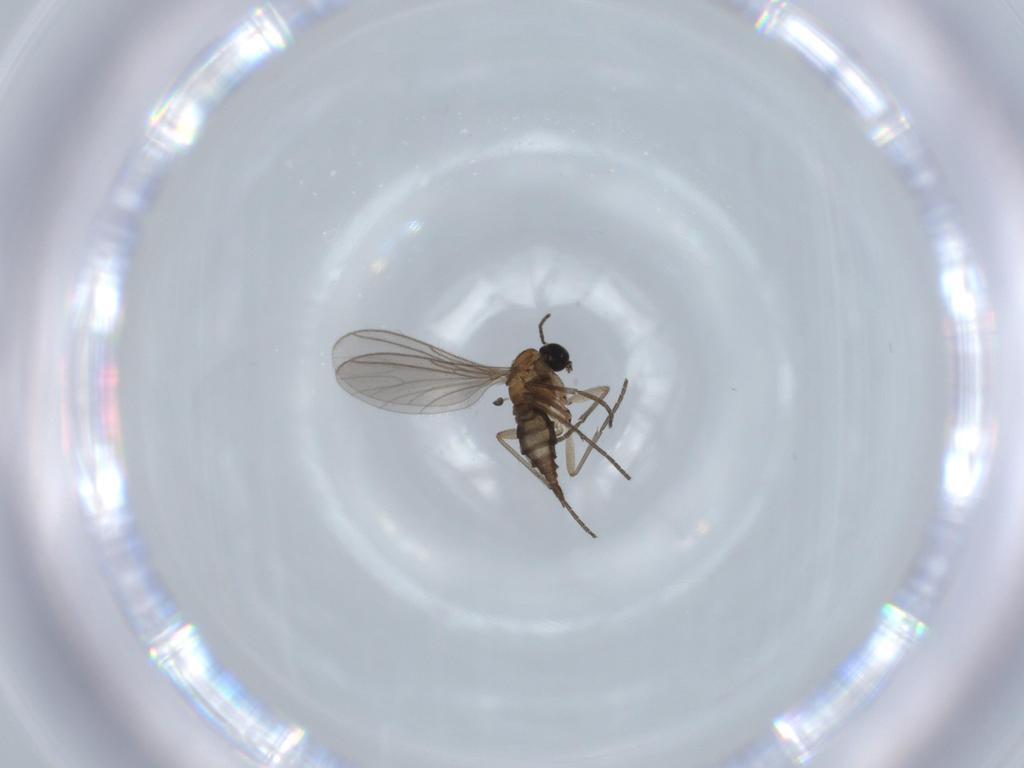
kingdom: Animalia
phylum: Arthropoda
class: Insecta
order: Diptera
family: Sciaridae
